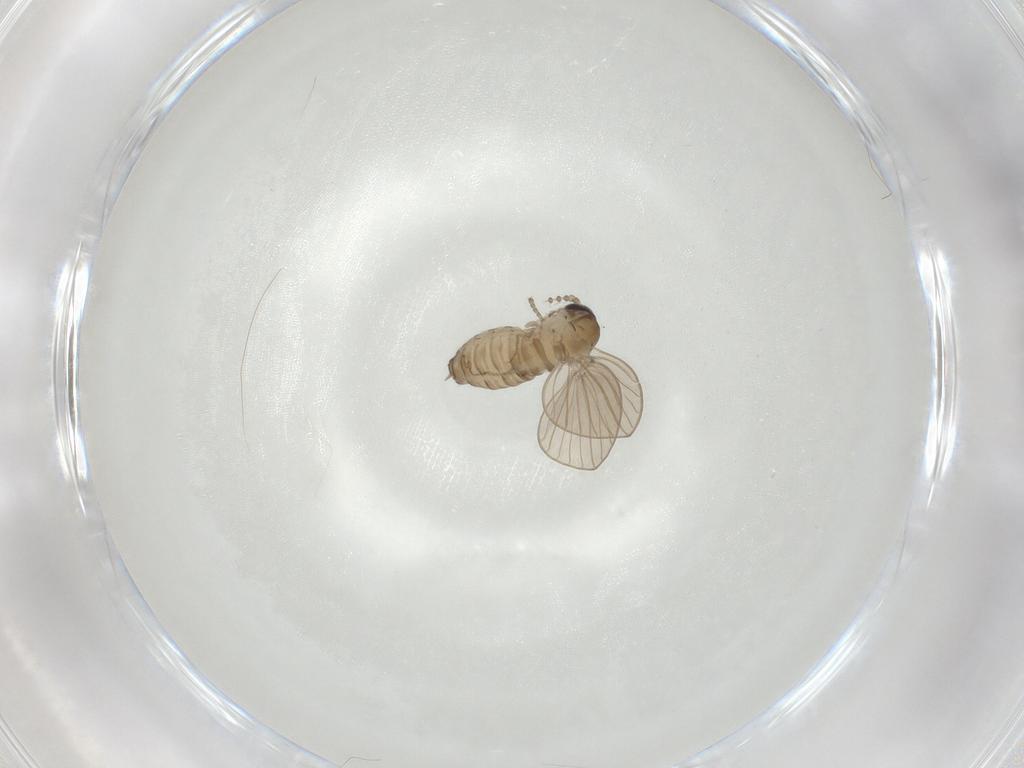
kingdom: Animalia
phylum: Arthropoda
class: Insecta
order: Diptera
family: Psychodidae
